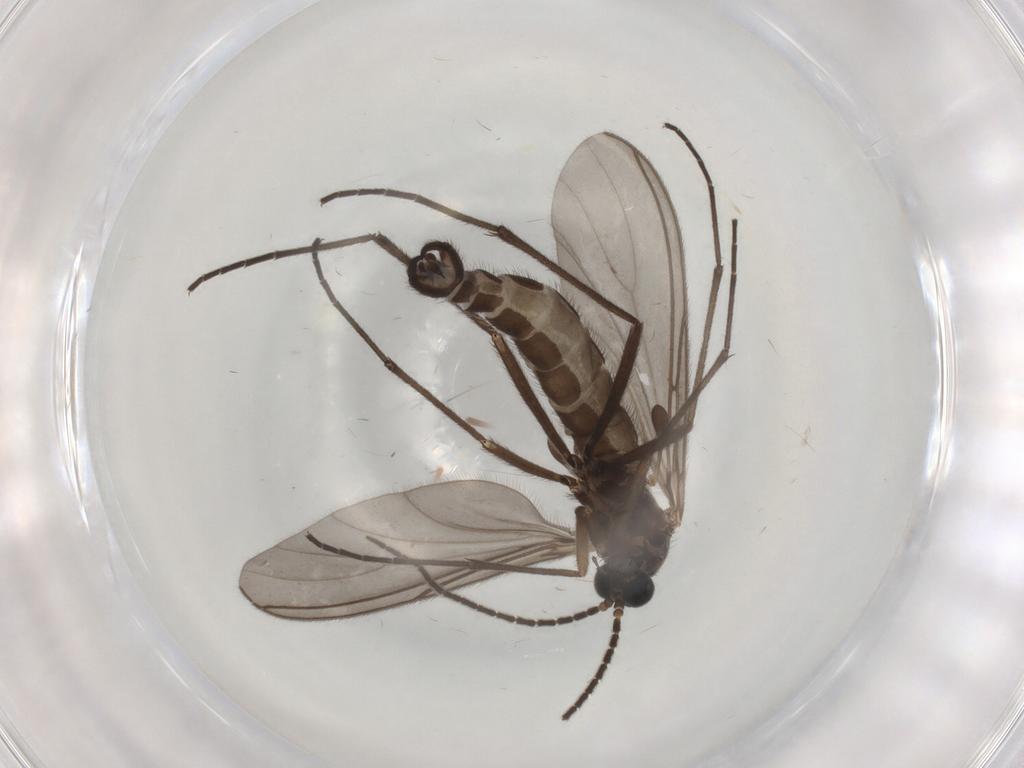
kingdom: Animalia
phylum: Arthropoda
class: Insecta
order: Diptera
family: Sciaridae
